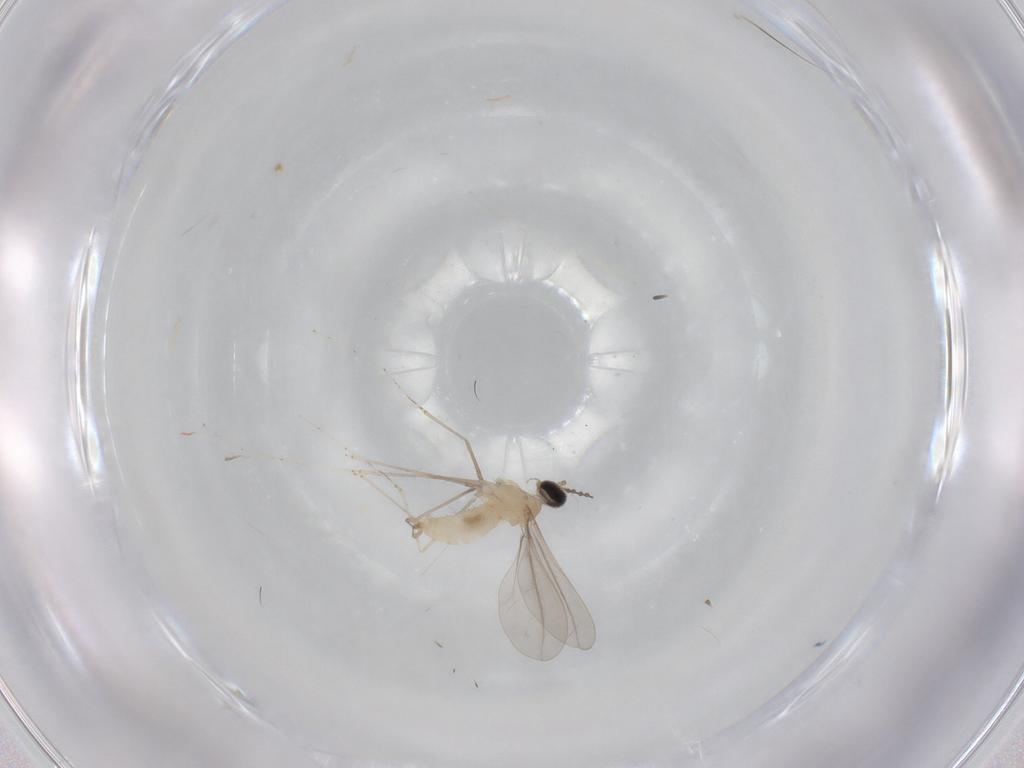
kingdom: Animalia
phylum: Arthropoda
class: Insecta
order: Diptera
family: Cecidomyiidae
